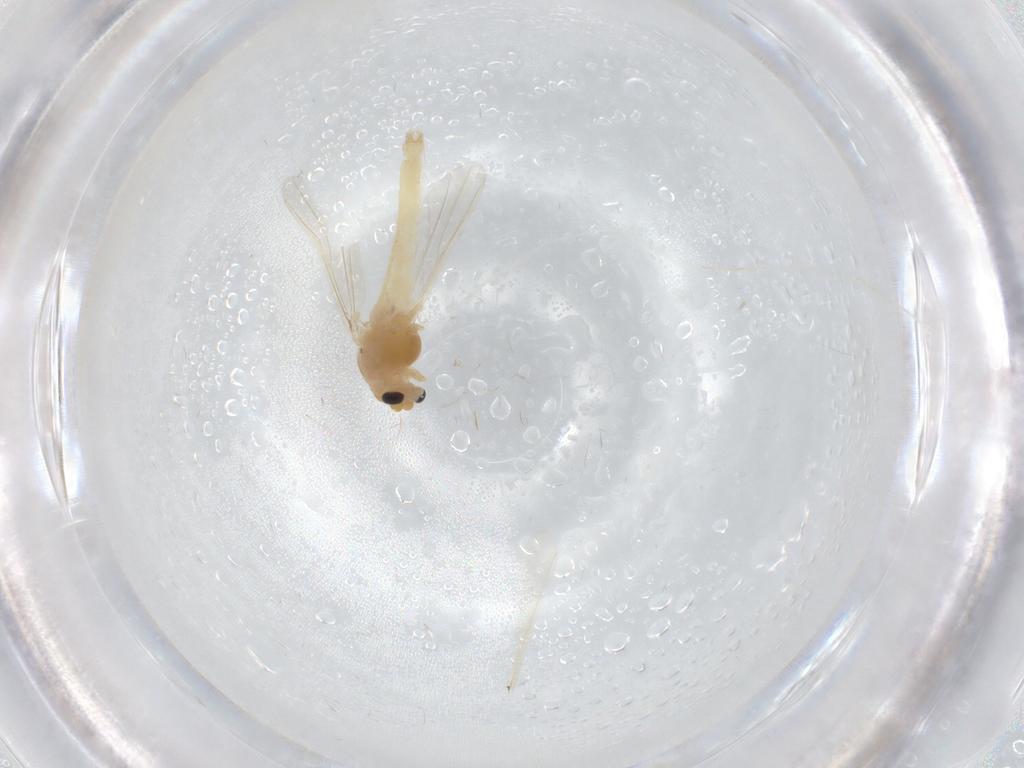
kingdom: Animalia
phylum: Arthropoda
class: Insecta
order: Diptera
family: Chironomidae
